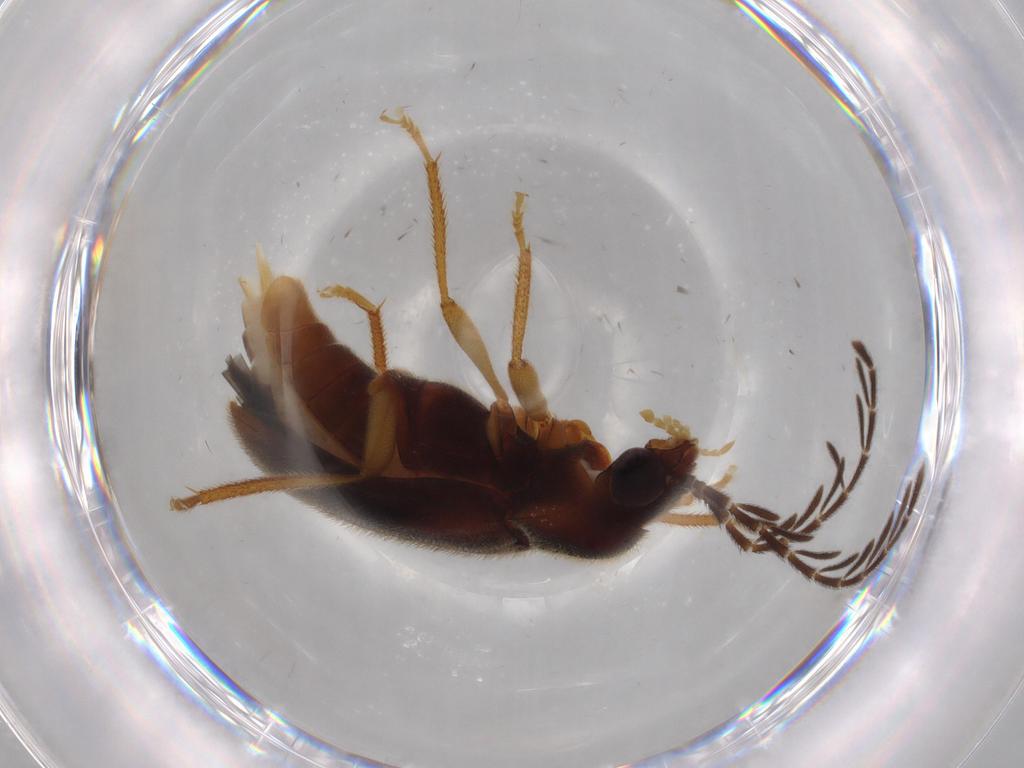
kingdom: Animalia
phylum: Arthropoda
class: Insecta
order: Coleoptera
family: Ptilodactylidae
